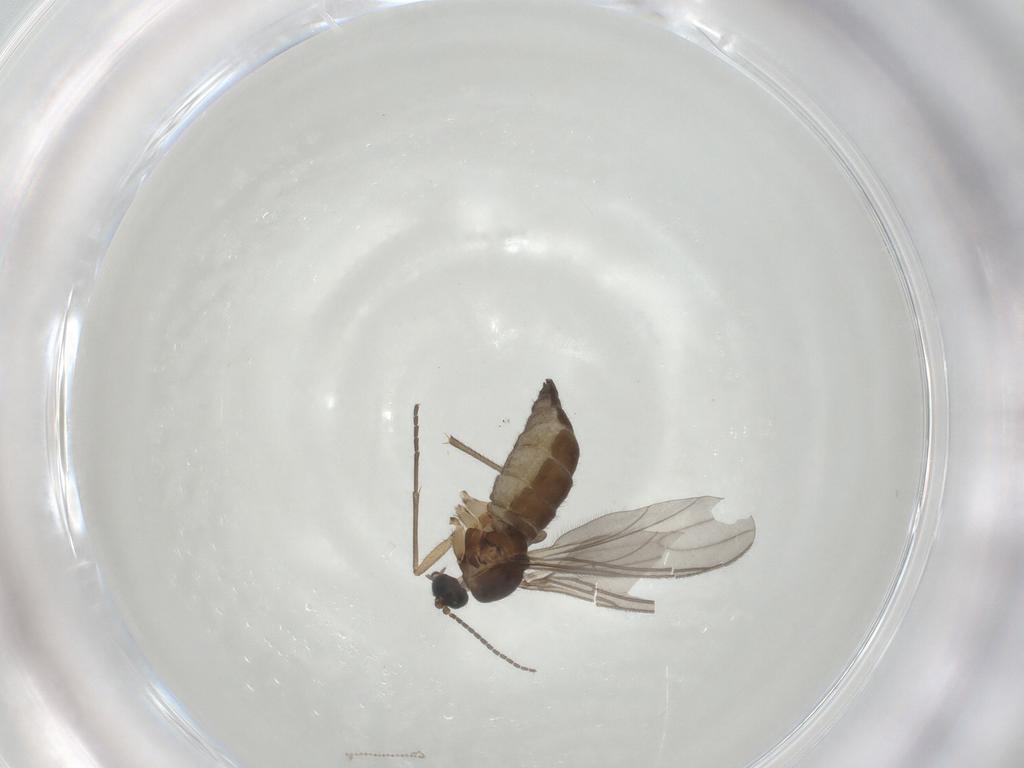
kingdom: Animalia
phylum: Arthropoda
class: Insecta
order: Diptera
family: Sciaridae
